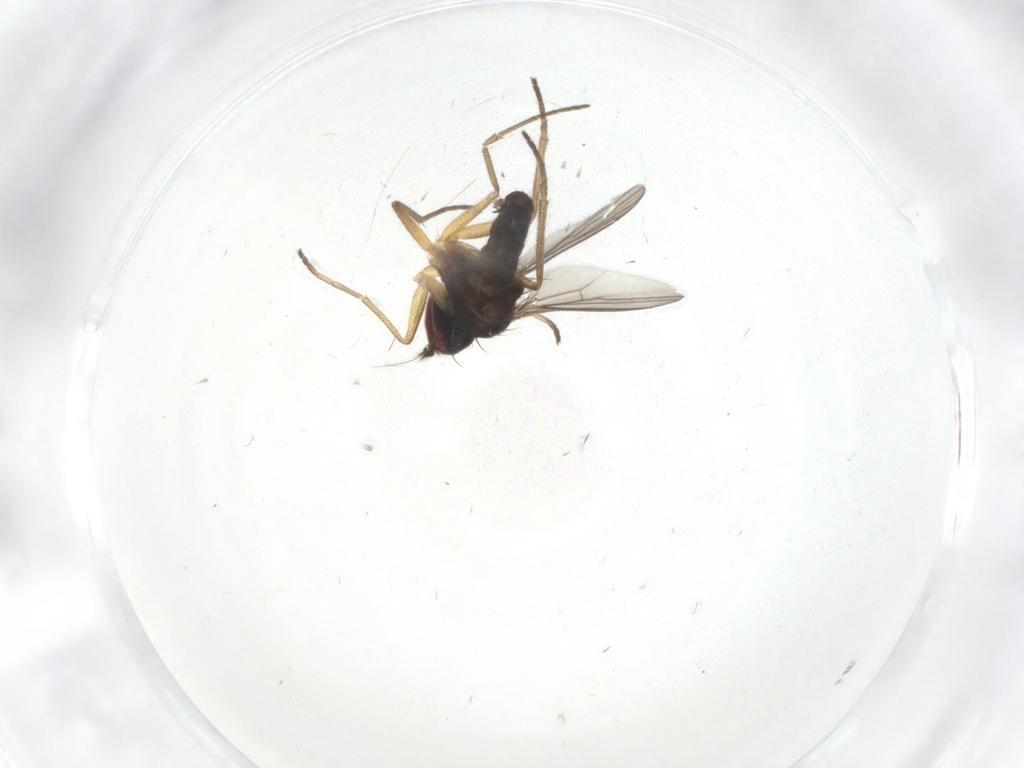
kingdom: Animalia
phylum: Arthropoda
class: Insecta
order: Diptera
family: Dolichopodidae
